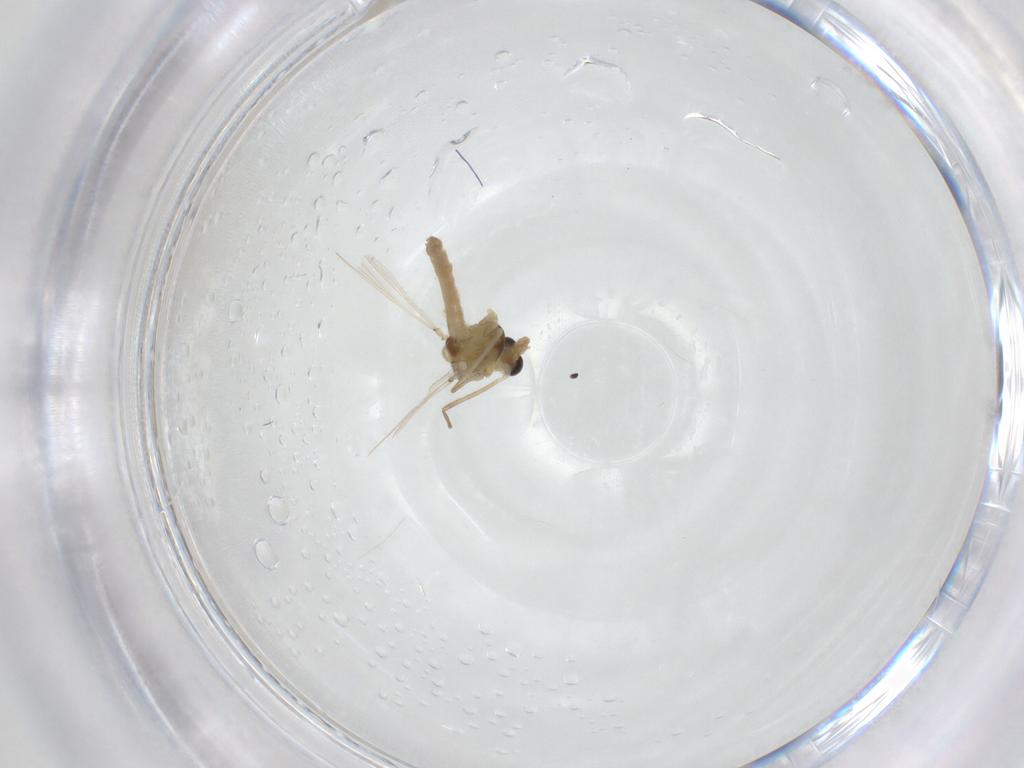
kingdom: Animalia
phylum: Arthropoda
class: Insecta
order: Diptera
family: Chironomidae
